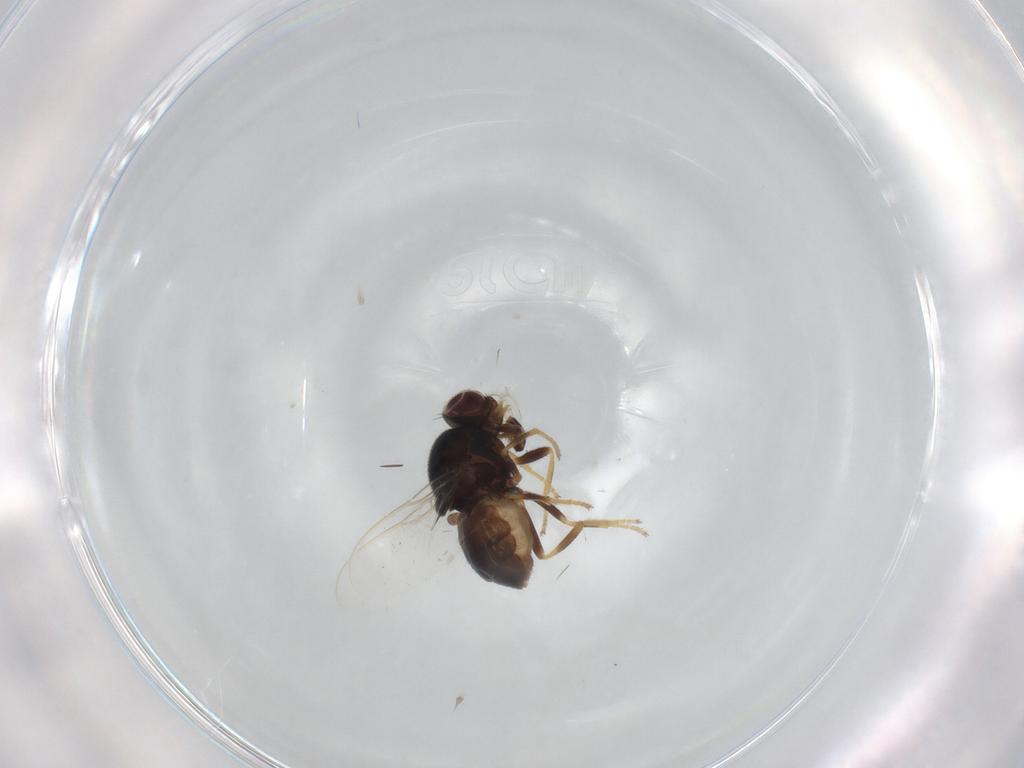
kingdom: Animalia
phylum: Arthropoda
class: Insecta
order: Diptera
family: Chloropidae
